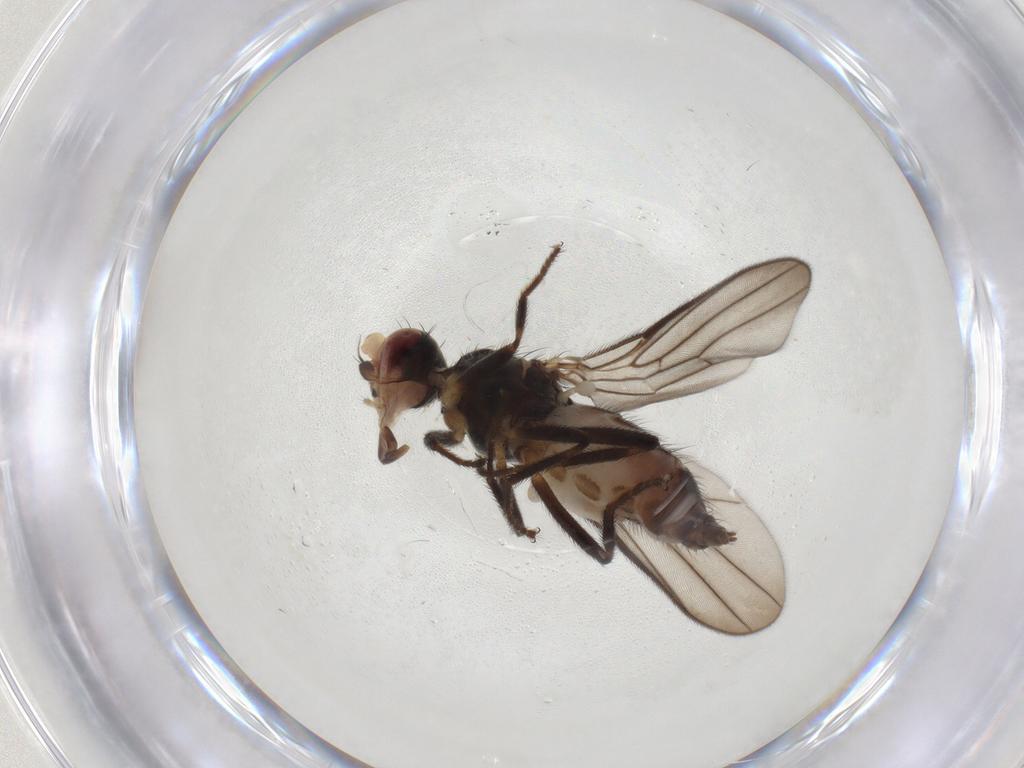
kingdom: Animalia
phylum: Arthropoda
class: Insecta
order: Diptera
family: Chloropidae
